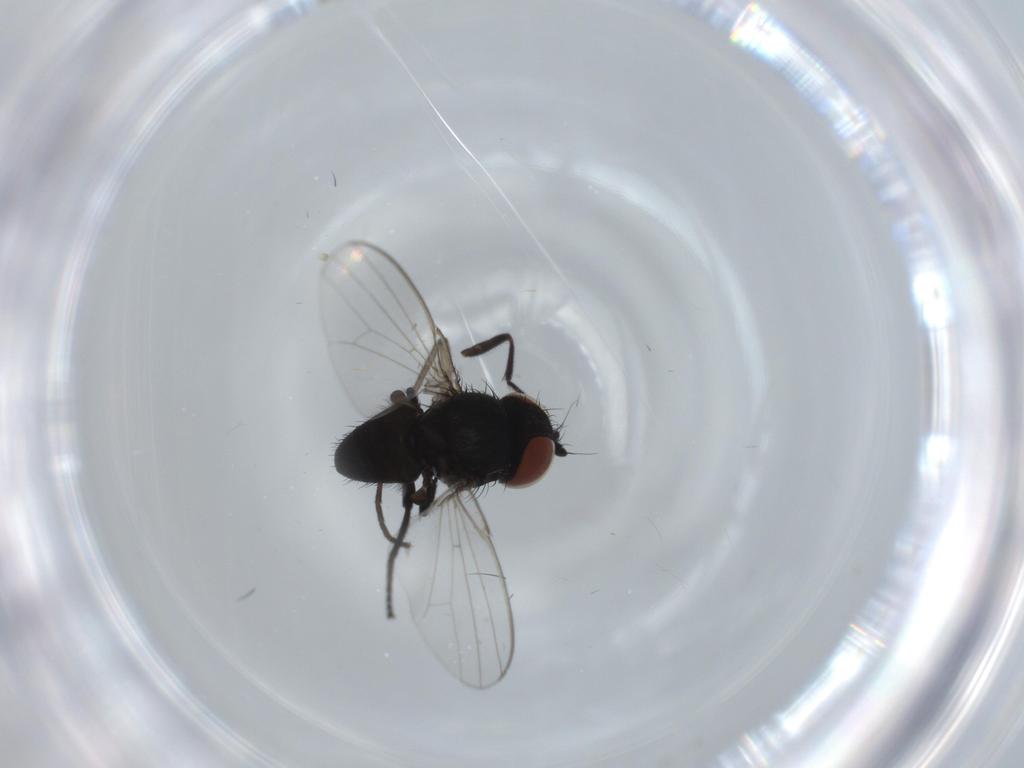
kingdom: Animalia
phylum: Arthropoda
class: Insecta
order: Diptera
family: Milichiidae
